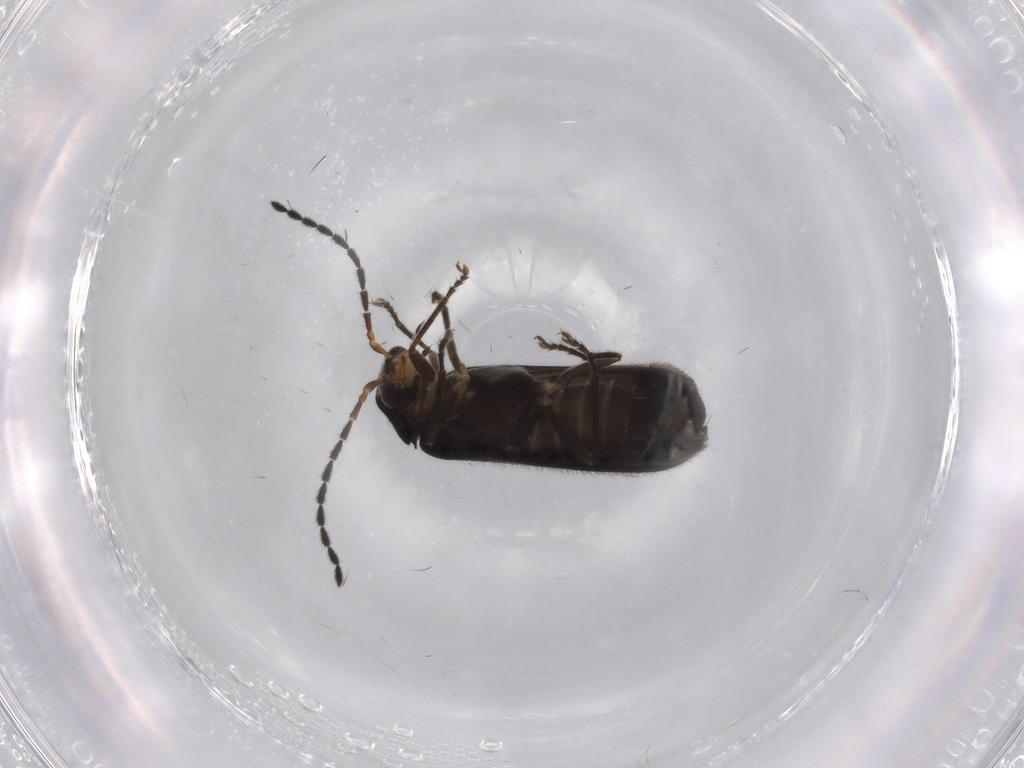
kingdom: Animalia
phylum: Arthropoda
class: Insecta
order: Coleoptera
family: Cantharidae
